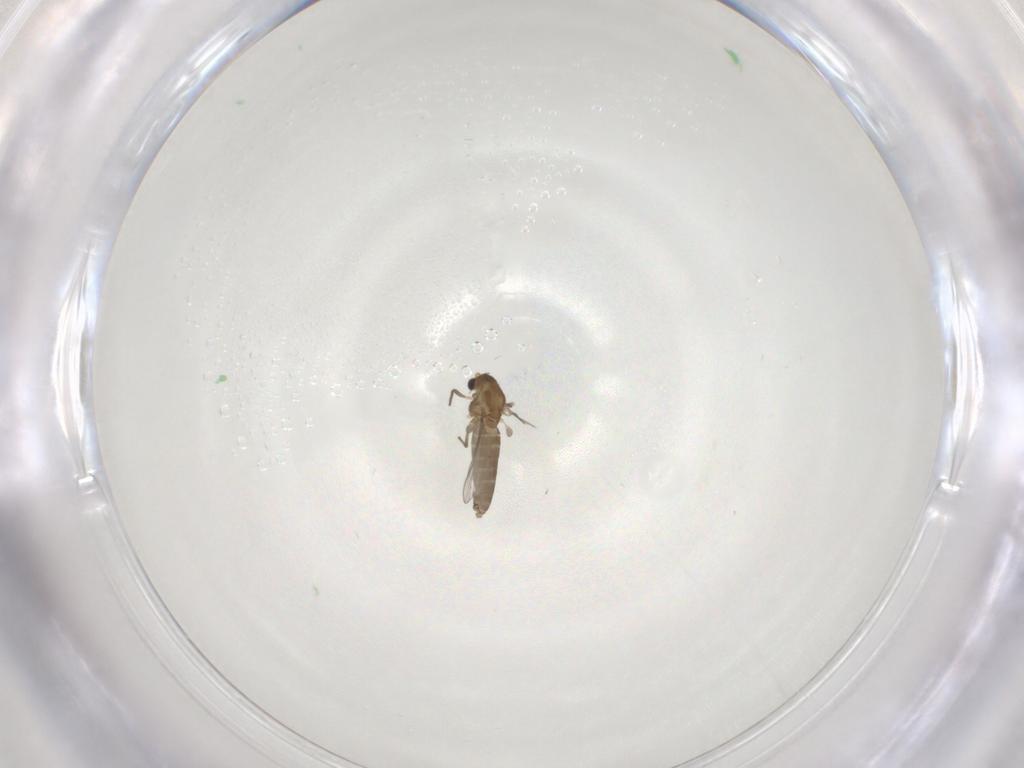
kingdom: Animalia
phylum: Arthropoda
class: Insecta
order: Diptera
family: Chironomidae
